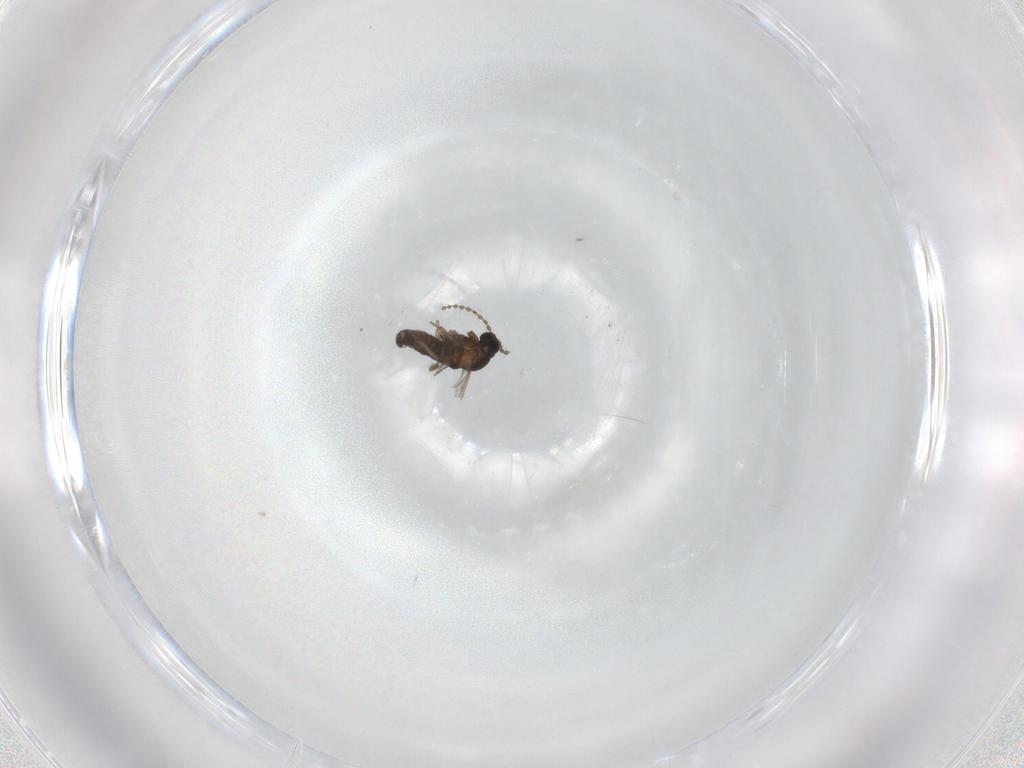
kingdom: Animalia
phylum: Arthropoda
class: Insecta
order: Diptera
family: Cecidomyiidae
